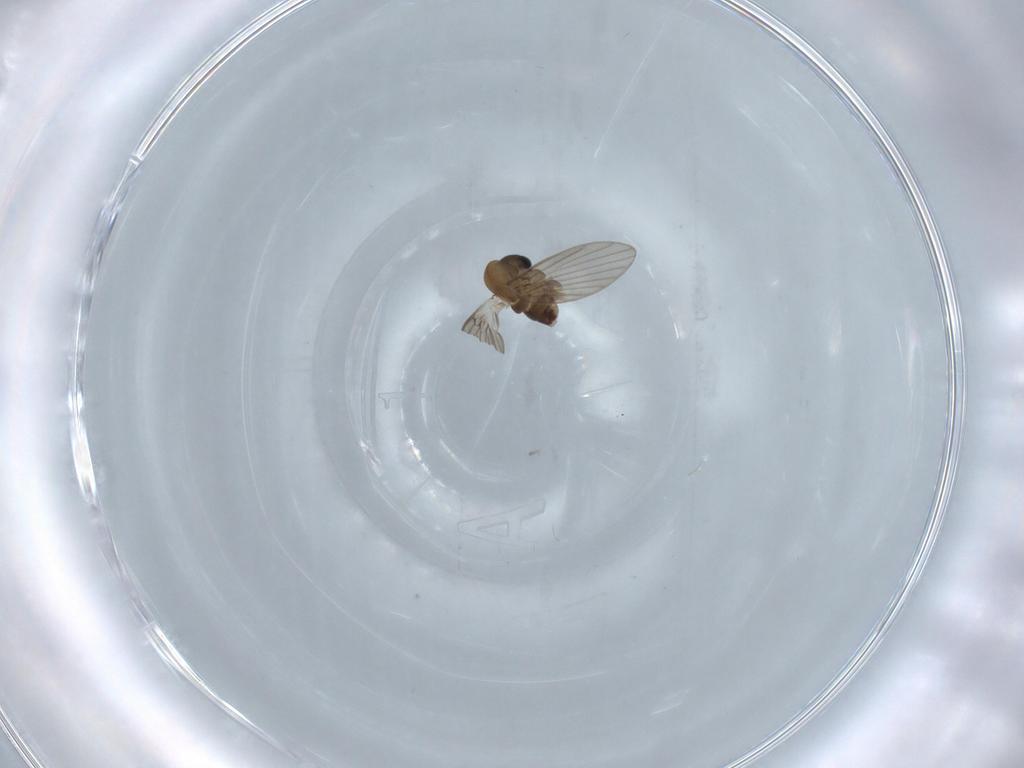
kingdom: Animalia
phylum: Arthropoda
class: Insecta
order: Diptera
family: Psychodidae
